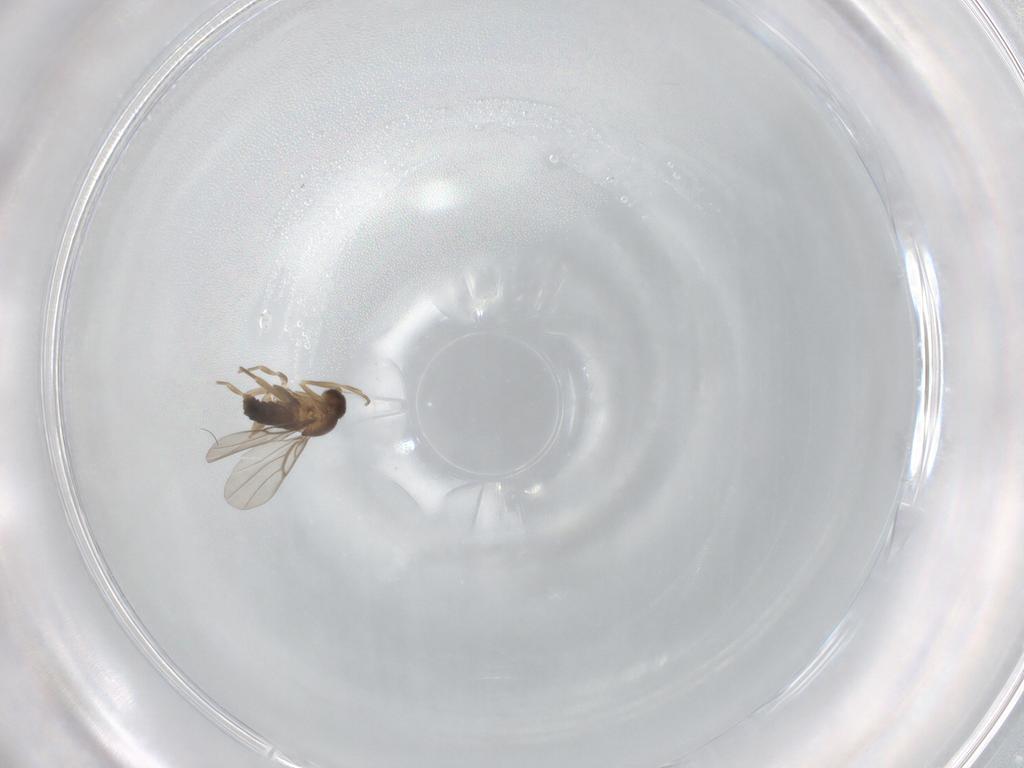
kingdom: Animalia
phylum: Arthropoda
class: Insecta
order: Diptera
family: Phoridae
